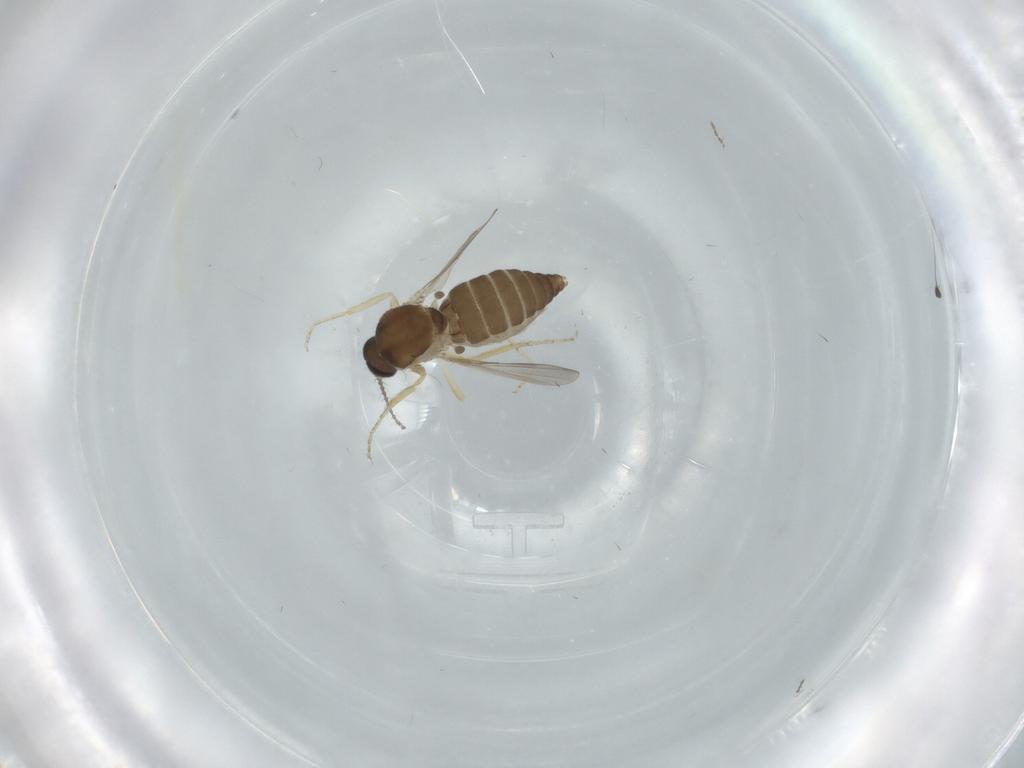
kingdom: Animalia
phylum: Arthropoda
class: Insecta
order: Diptera
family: Ceratopogonidae
